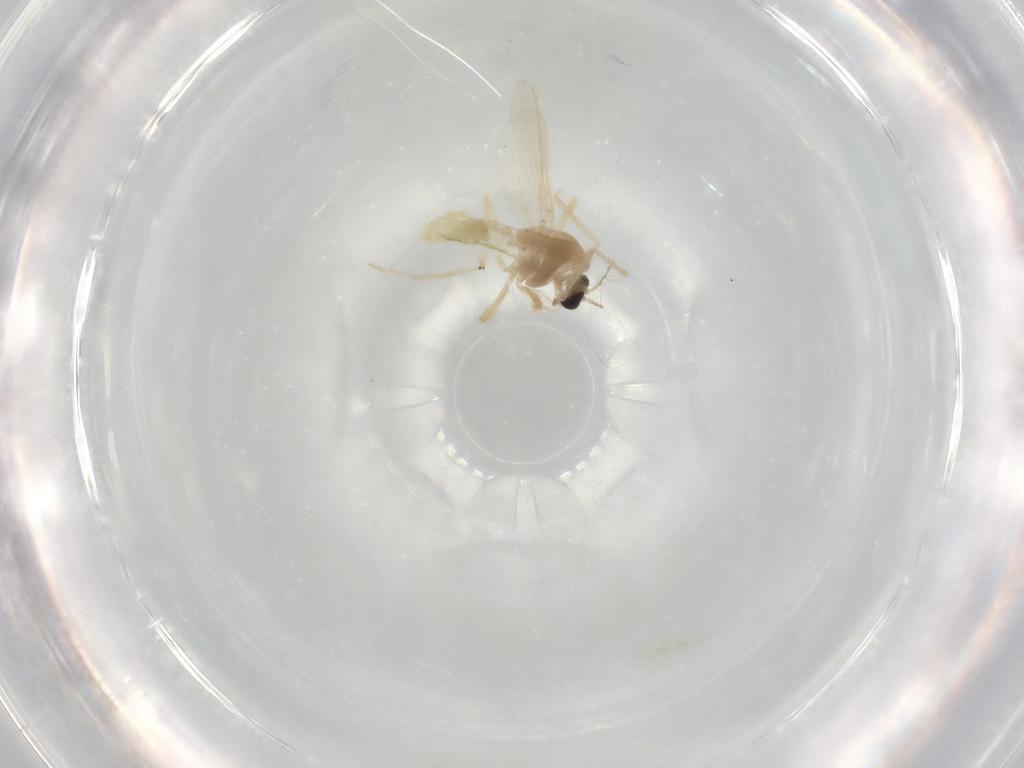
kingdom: Animalia
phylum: Arthropoda
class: Insecta
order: Diptera
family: Chironomidae
